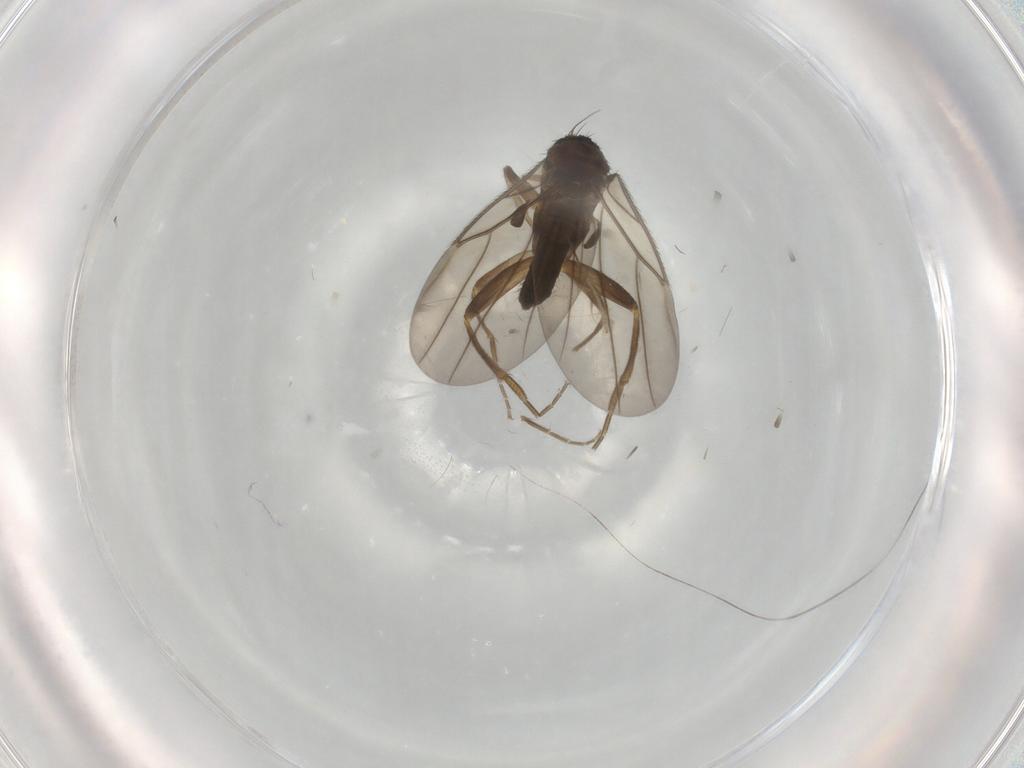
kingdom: Animalia
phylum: Arthropoda
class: Insecta
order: Diptera
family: Phoridae
